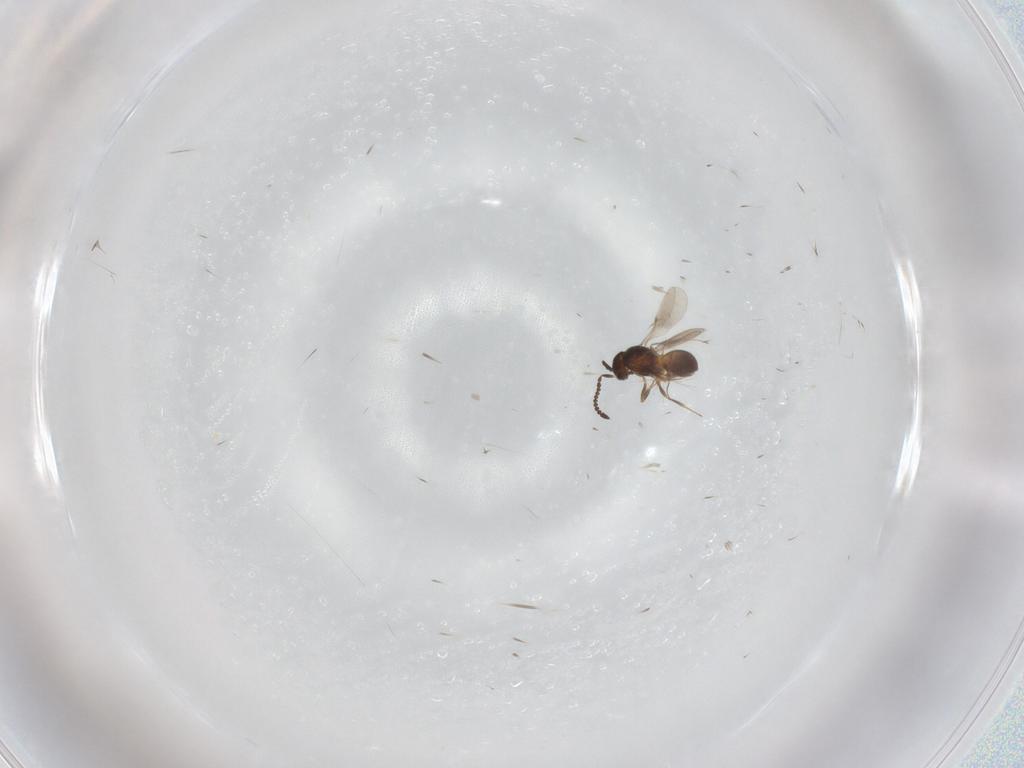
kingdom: Animalia
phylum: Arthropoda
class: Insecta
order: Hymenoptera
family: Scelionidae
